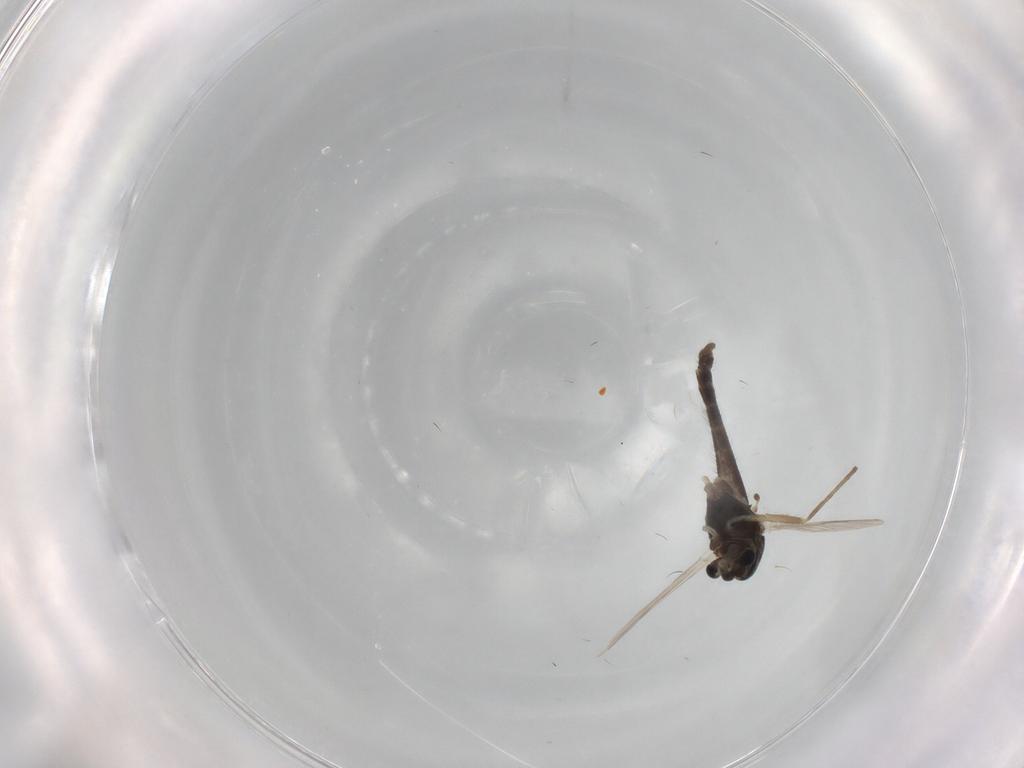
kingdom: Animalia
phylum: Arthropoda
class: Insecta
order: Diptera
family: Chironomidae
